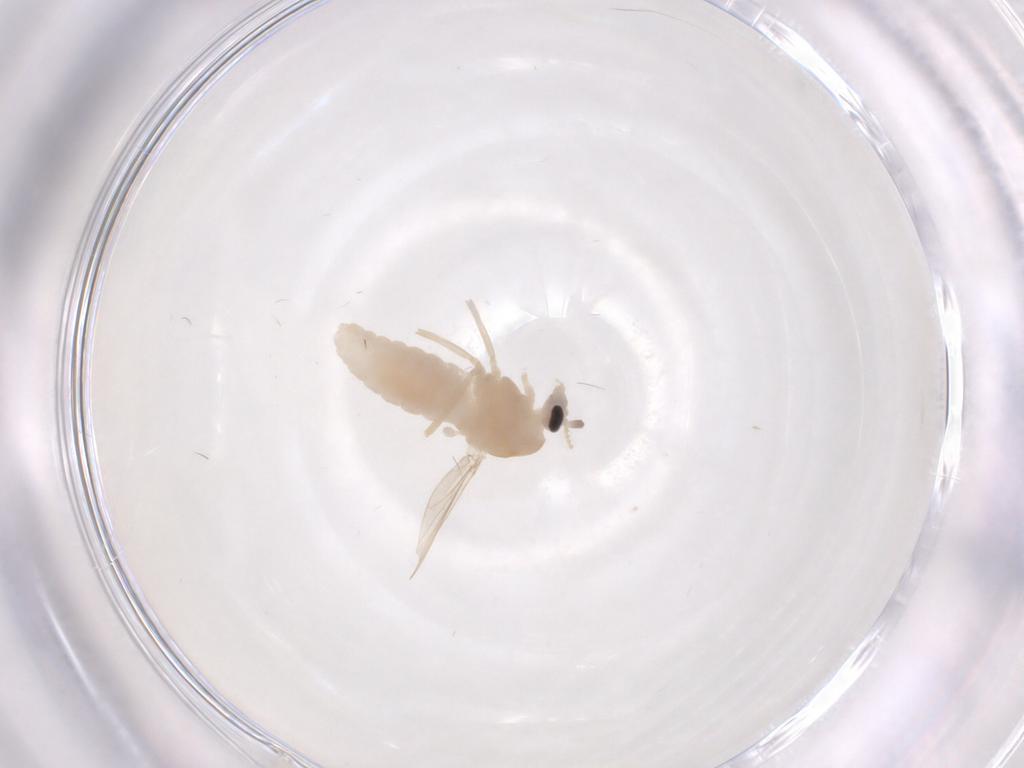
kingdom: Animalia
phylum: Arthropoda
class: Insecta
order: Diptera
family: Chironomidae
